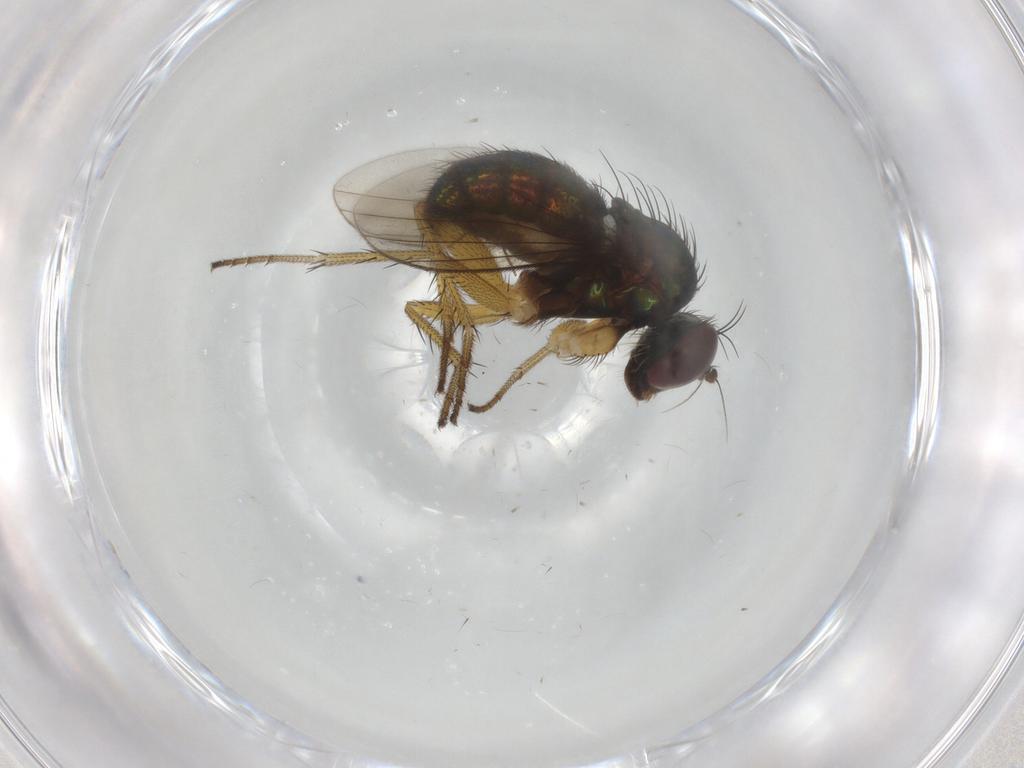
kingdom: Animalia
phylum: Arthropoda
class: Insecta
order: Diptera
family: Dolichopodidae
